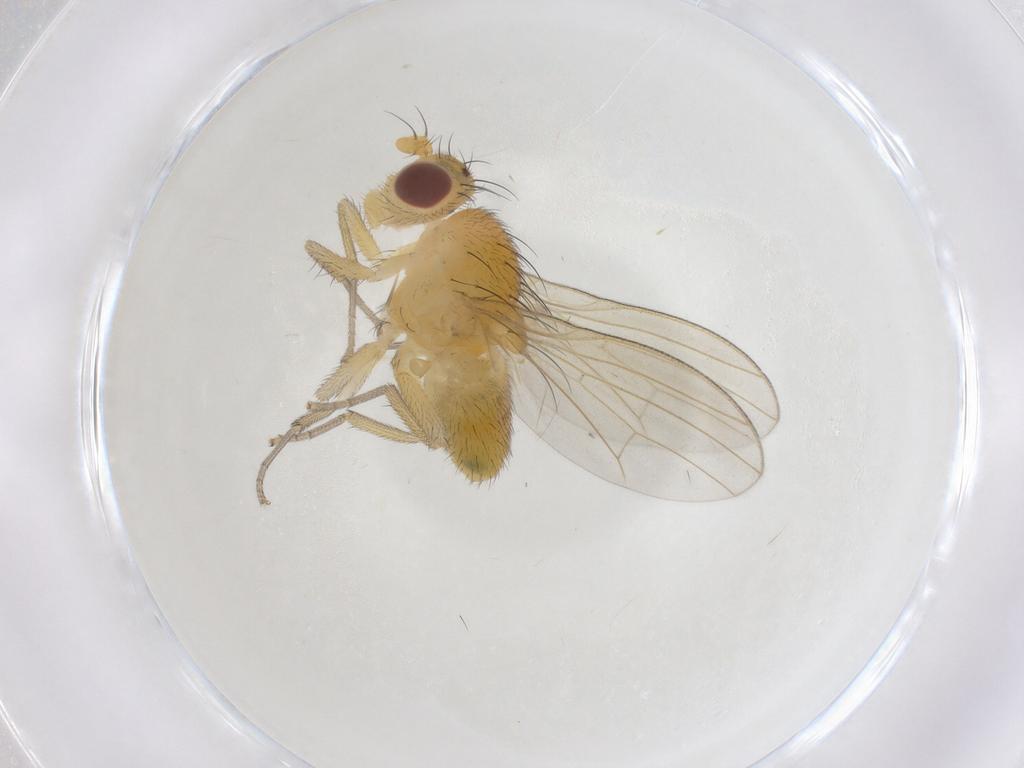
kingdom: Animalia
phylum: Arthropoda
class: Insecta
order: Diptera
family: Lauxaniidae
